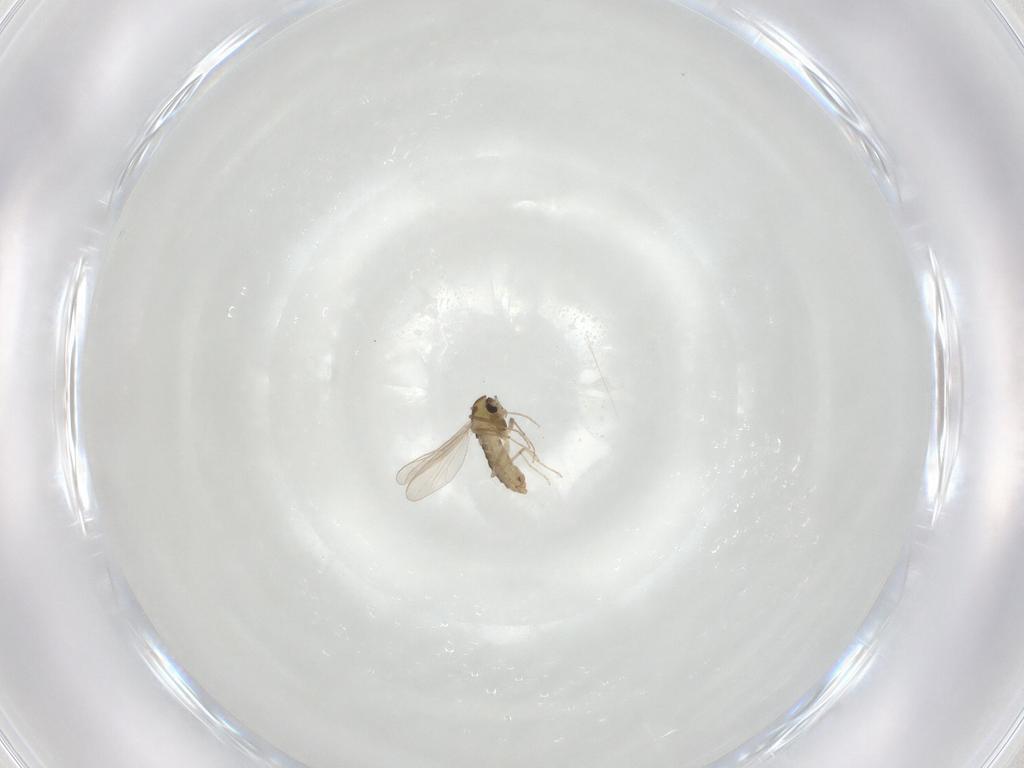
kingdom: Animalia
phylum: Arthropoda
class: Insecta
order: Diptera
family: Chironomidae
